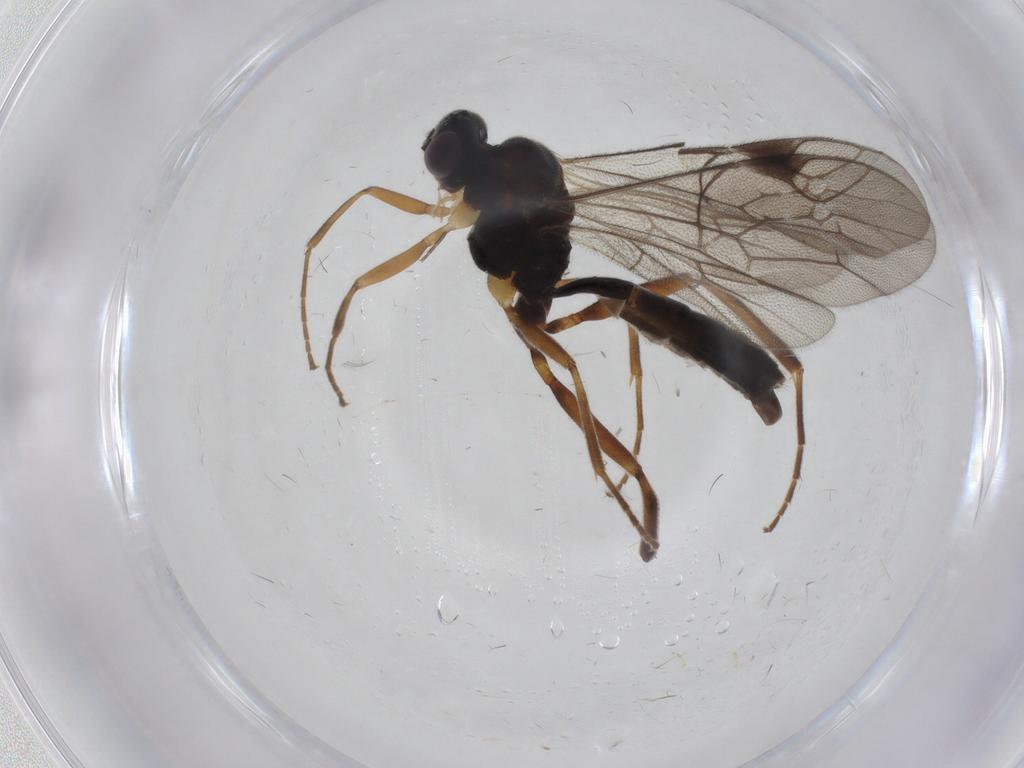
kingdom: Animalia
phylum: Arthropoda
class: Insecta
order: Hymenoptera
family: Ichneumonidae
